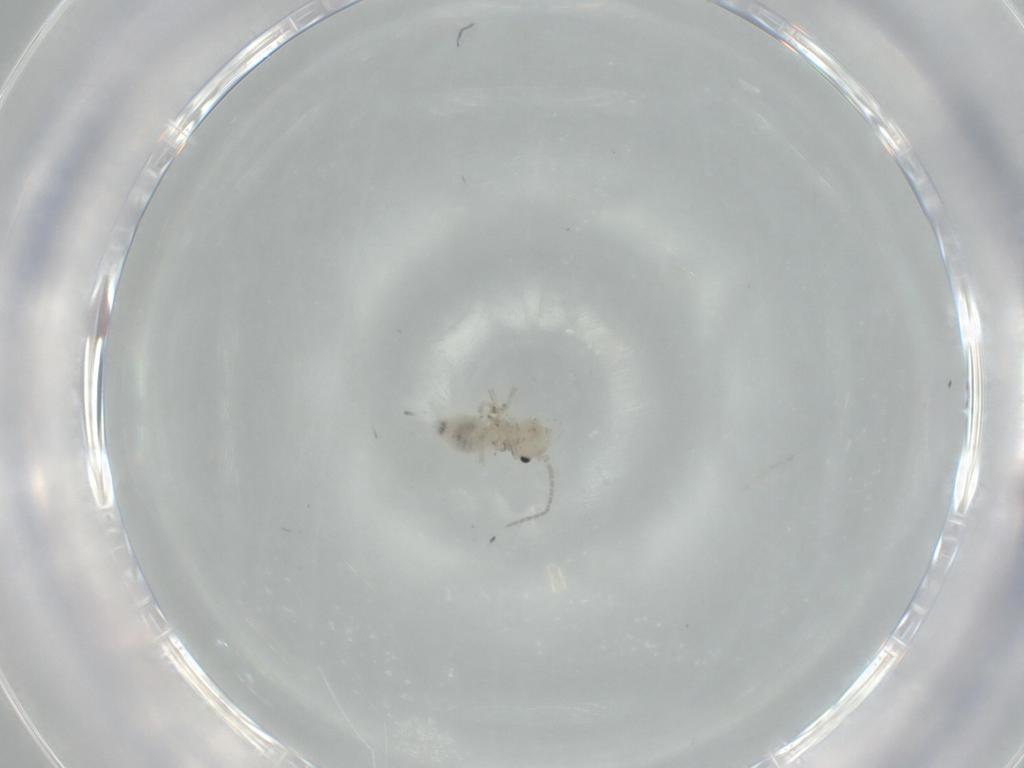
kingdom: Animalia
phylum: Arthropoda
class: Insecta
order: Psocodea
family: Amphipsocidae
